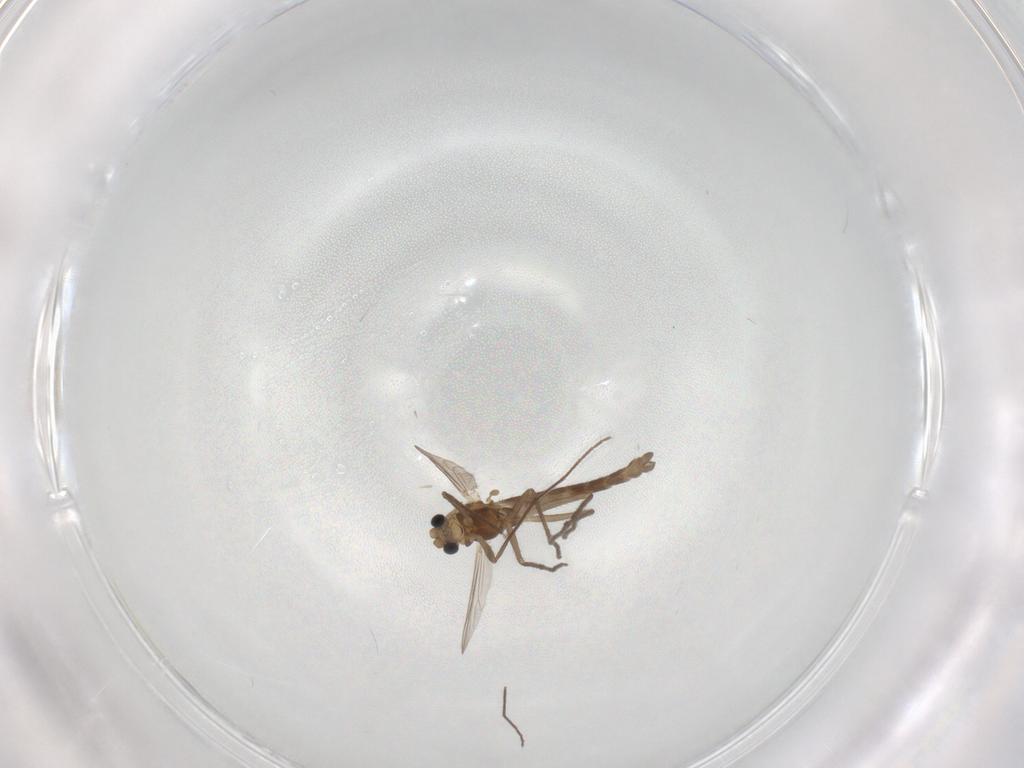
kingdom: Animalia
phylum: Arthropoda
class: Insecta
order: Diptera
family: Chironomidae
